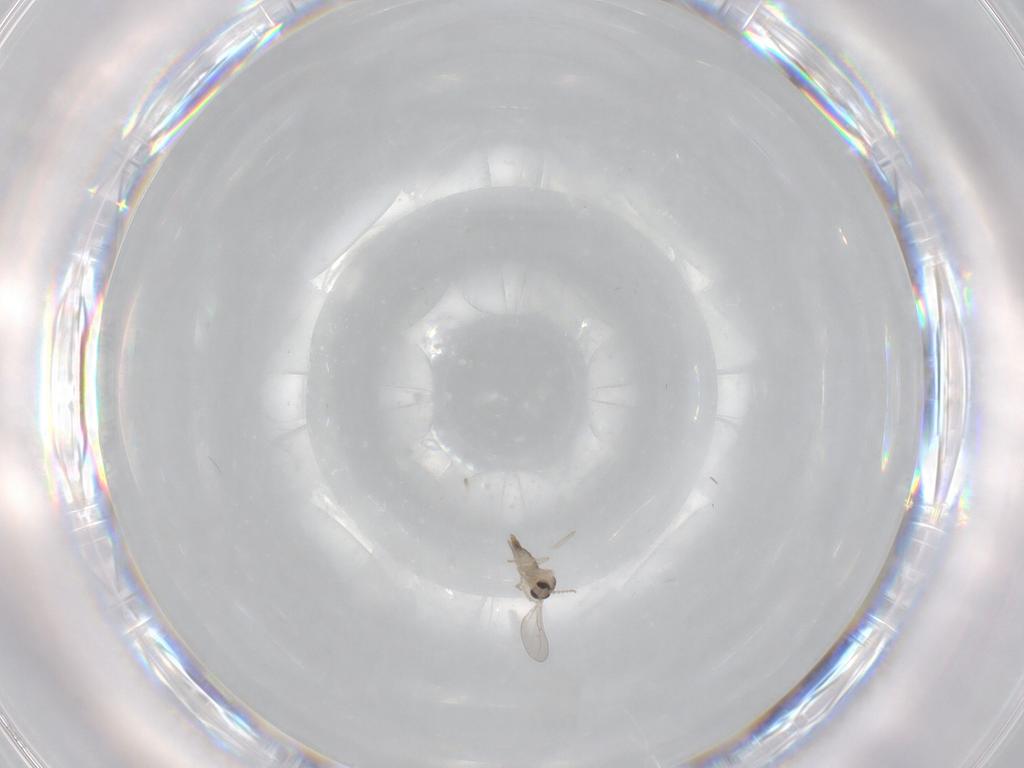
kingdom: Animalia
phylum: Arthropoda
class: Insecta
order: Diptera
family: Cecidomyiidae
